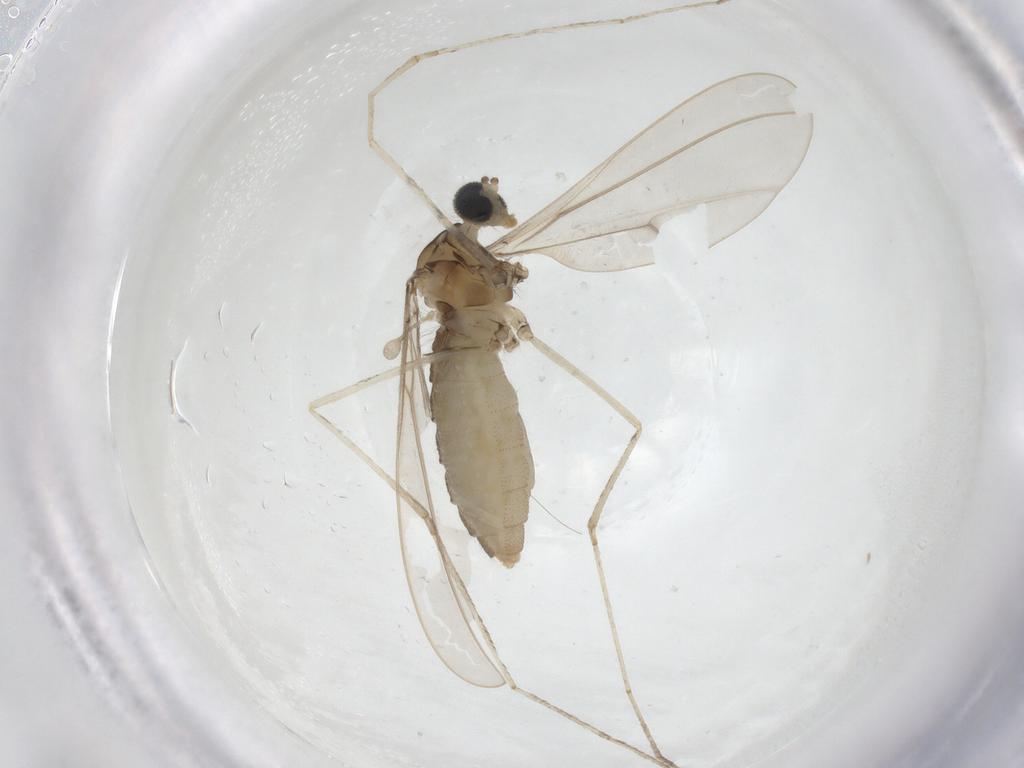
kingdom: Animalia
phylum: Arthropoda
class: Insecta
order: Diptera
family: Cecidomyiidae
